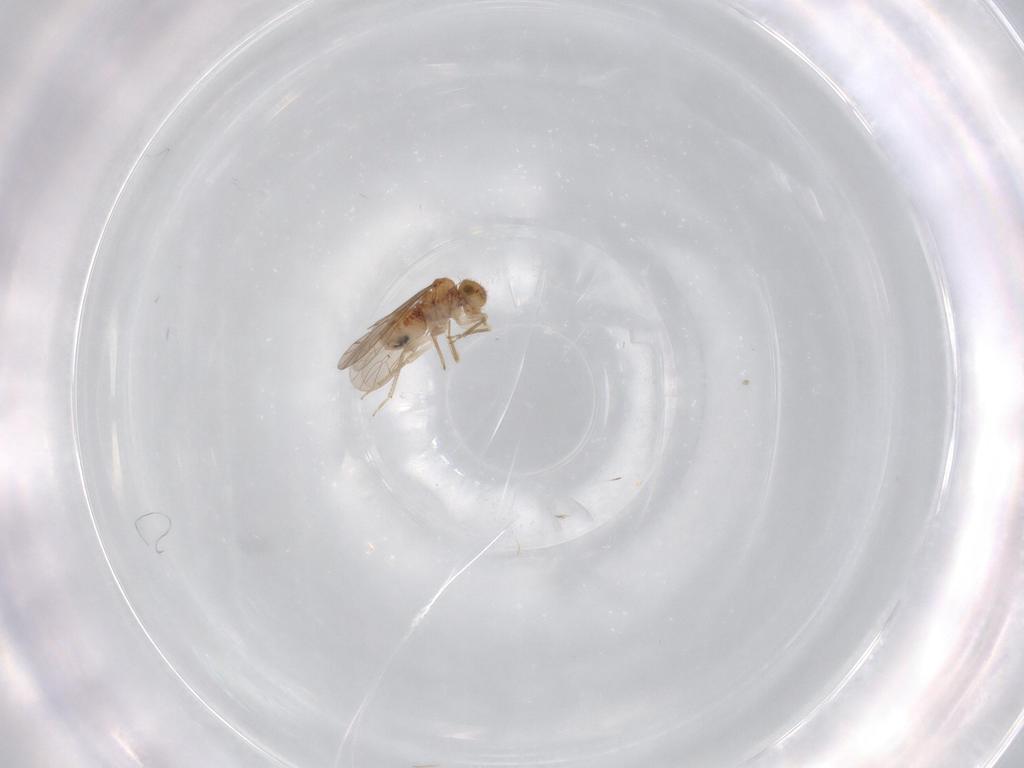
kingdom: Animalia
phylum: Arthropoda
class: Insecta
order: Psocodea
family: Ectopsocidae
